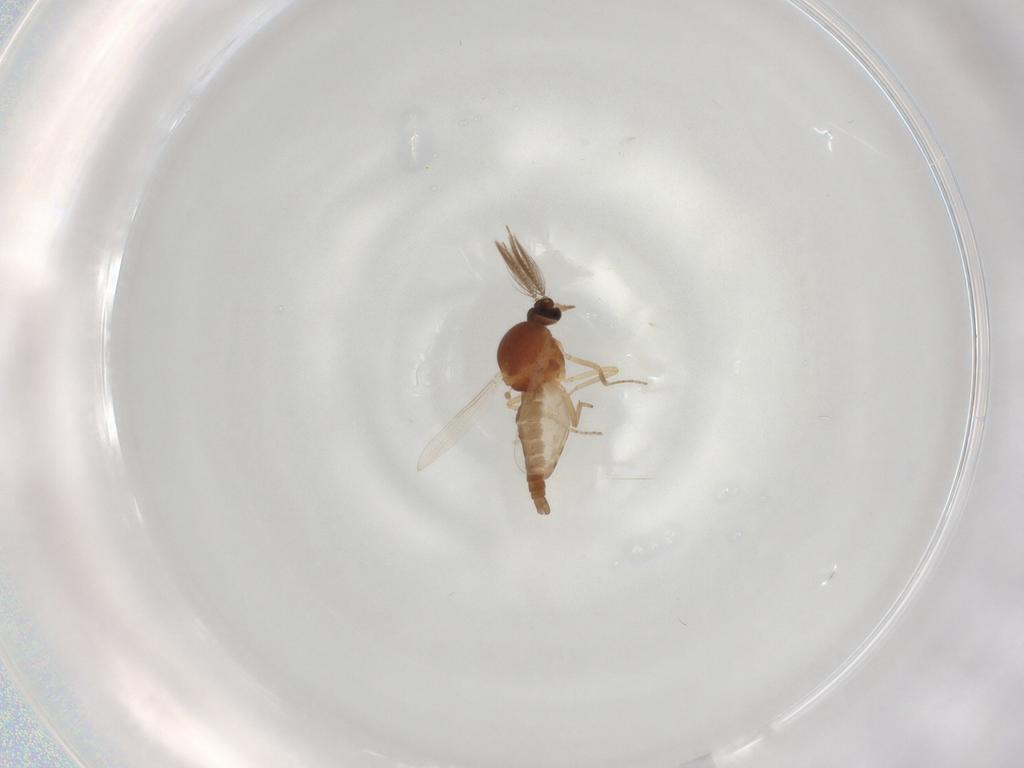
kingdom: Animalia
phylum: Arthropoda
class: Insecta
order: Diptera
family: Ceratopogonidae
